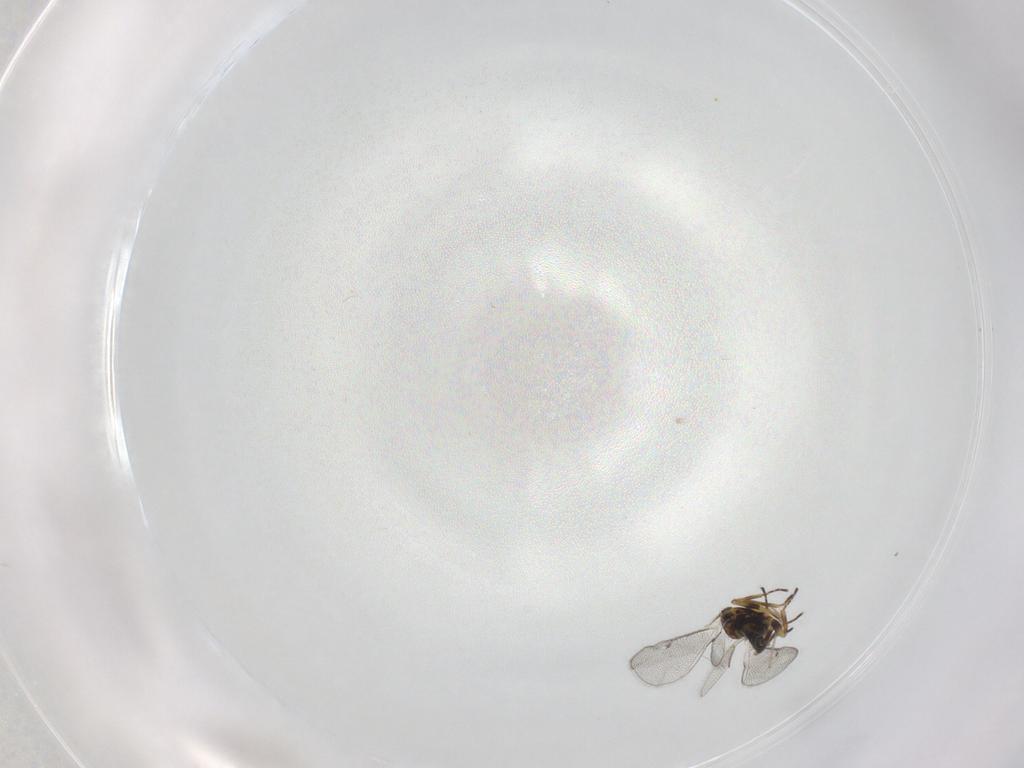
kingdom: Animalia
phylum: Arthropoda
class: Insecta
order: Hymenoptera
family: Eulophidae
